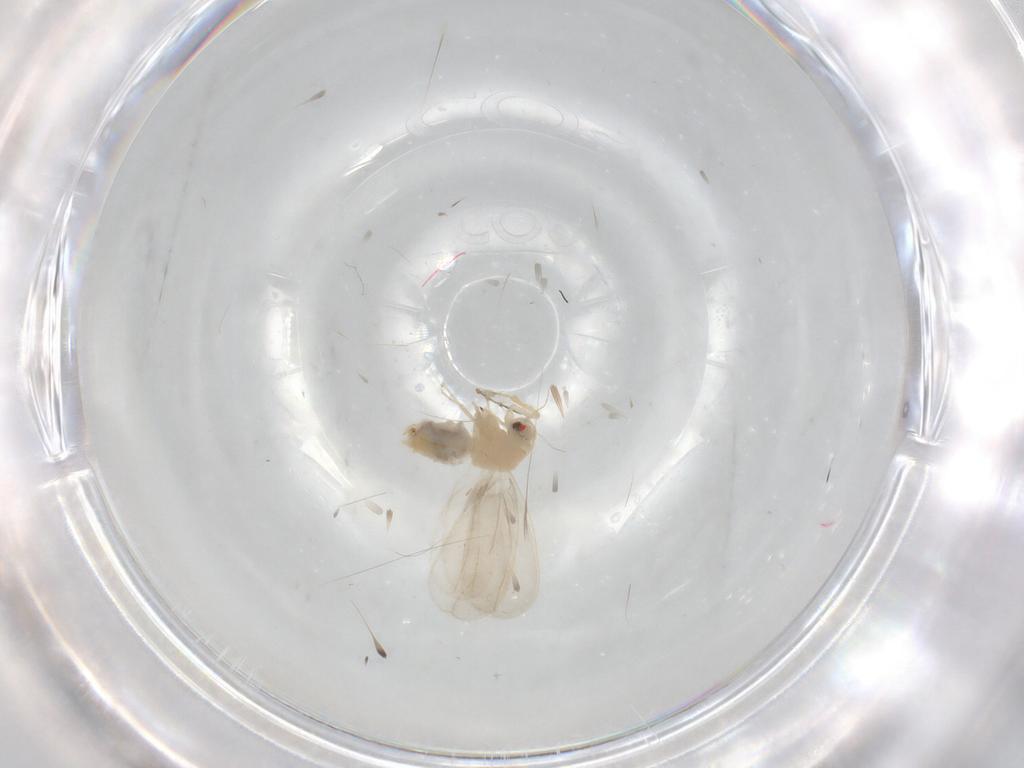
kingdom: Animalia
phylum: Arthropoda
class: Insecta
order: Hemiptera
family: Aleyrodidae
